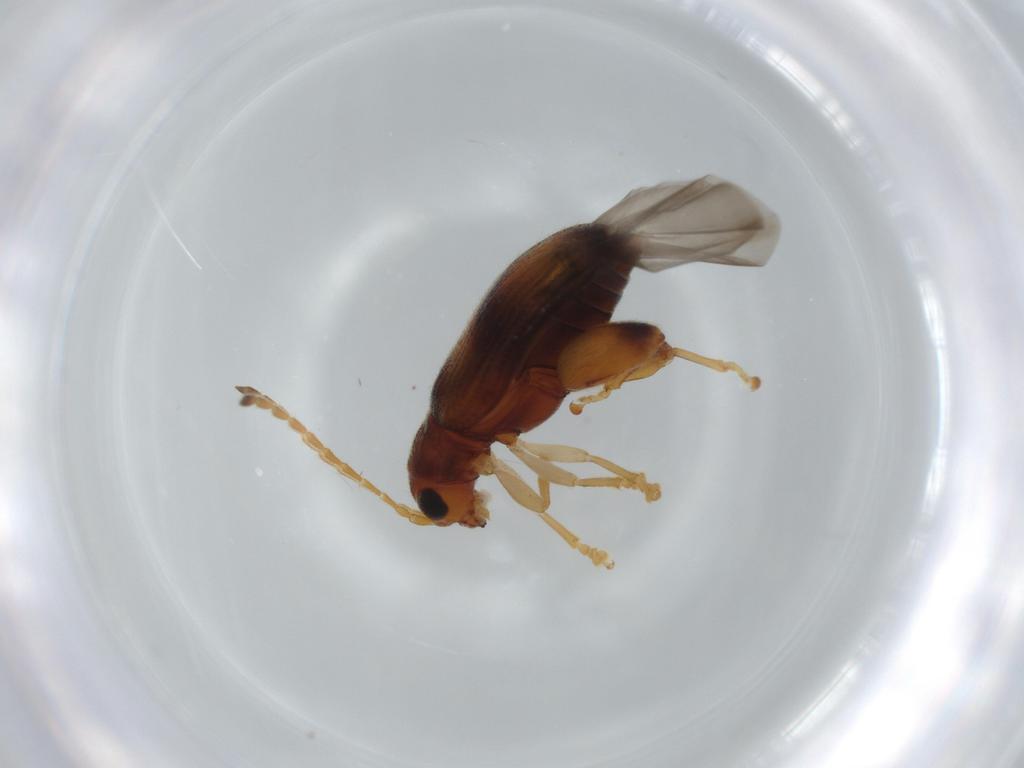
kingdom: Animalia
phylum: Arthropoda
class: Insecta
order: Coleoptera
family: Throscidae
